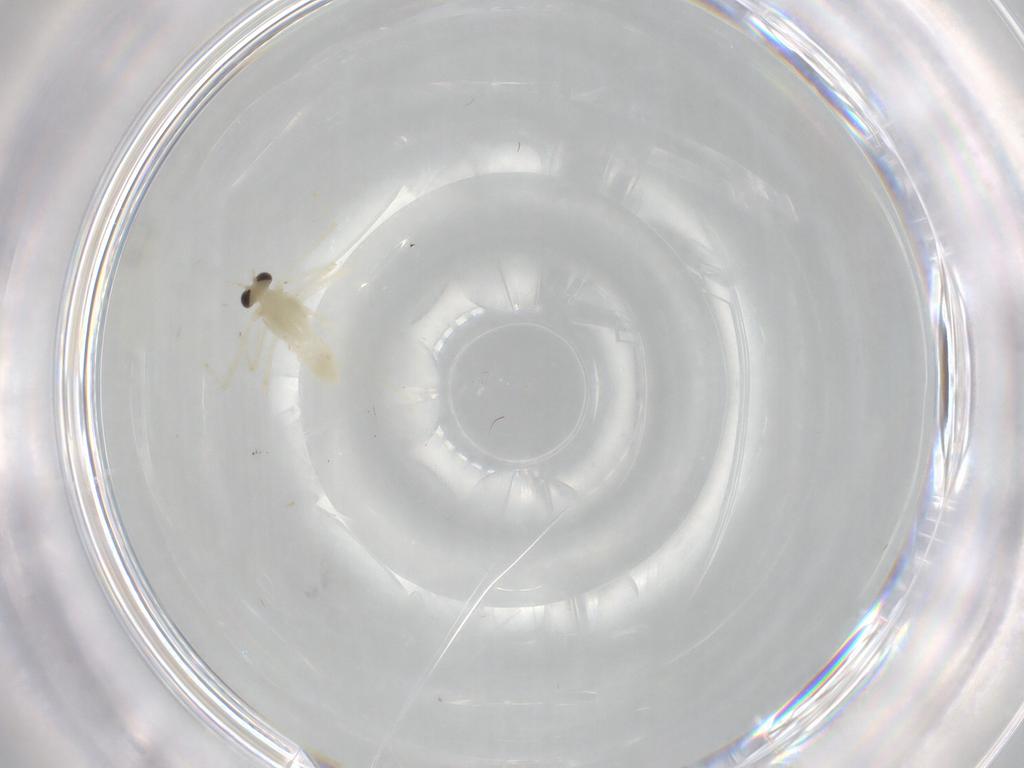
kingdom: Animalia
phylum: Arthropoda
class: Insecta
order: Diptera
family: Chironomidae
